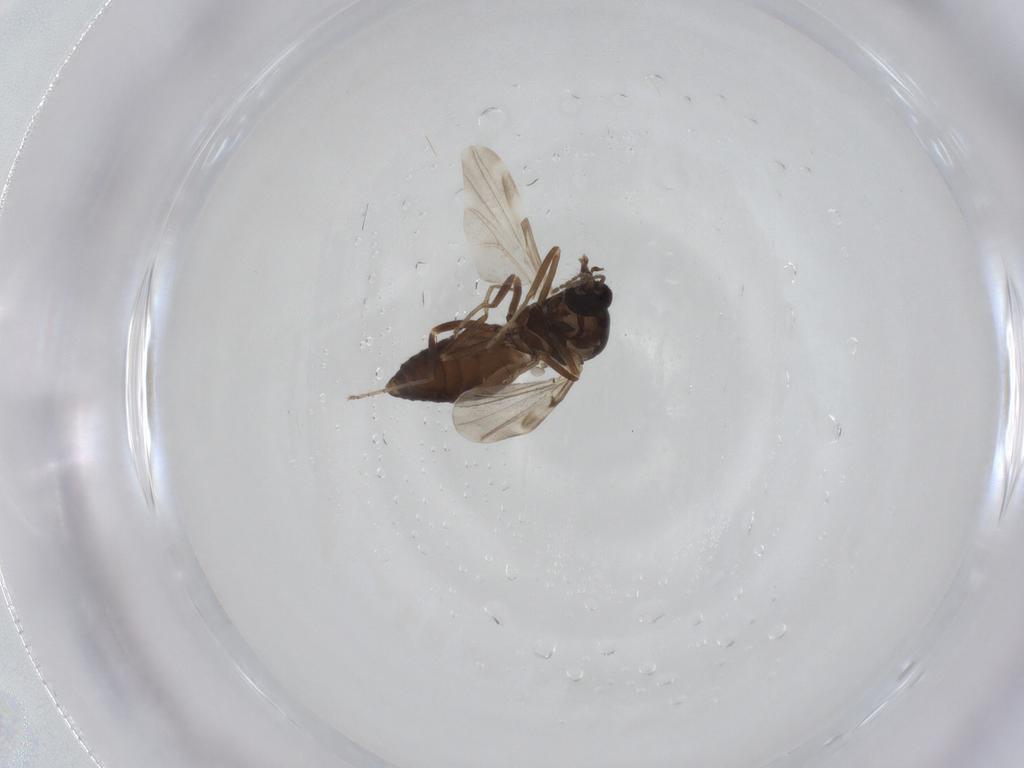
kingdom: Animalia
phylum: Arthropoda
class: Insecta
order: Diptera
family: Ceratopogonidae
